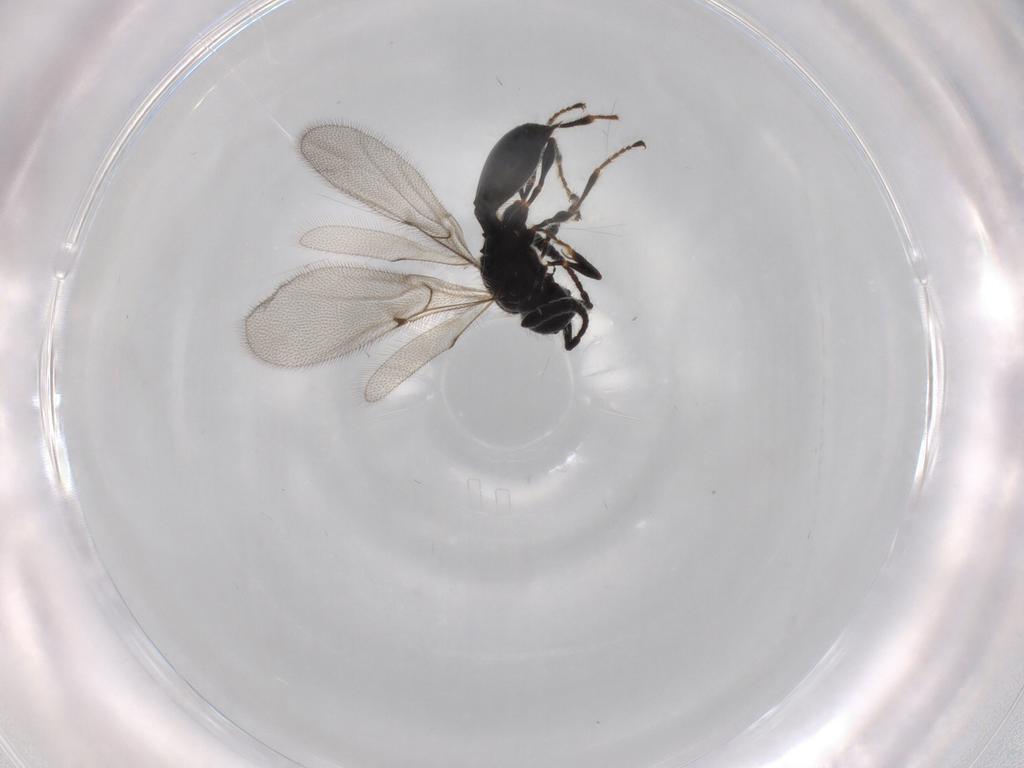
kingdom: Animalia
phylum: Arthropoda
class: Insecta
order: Hymenoptera
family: Diapriidae
